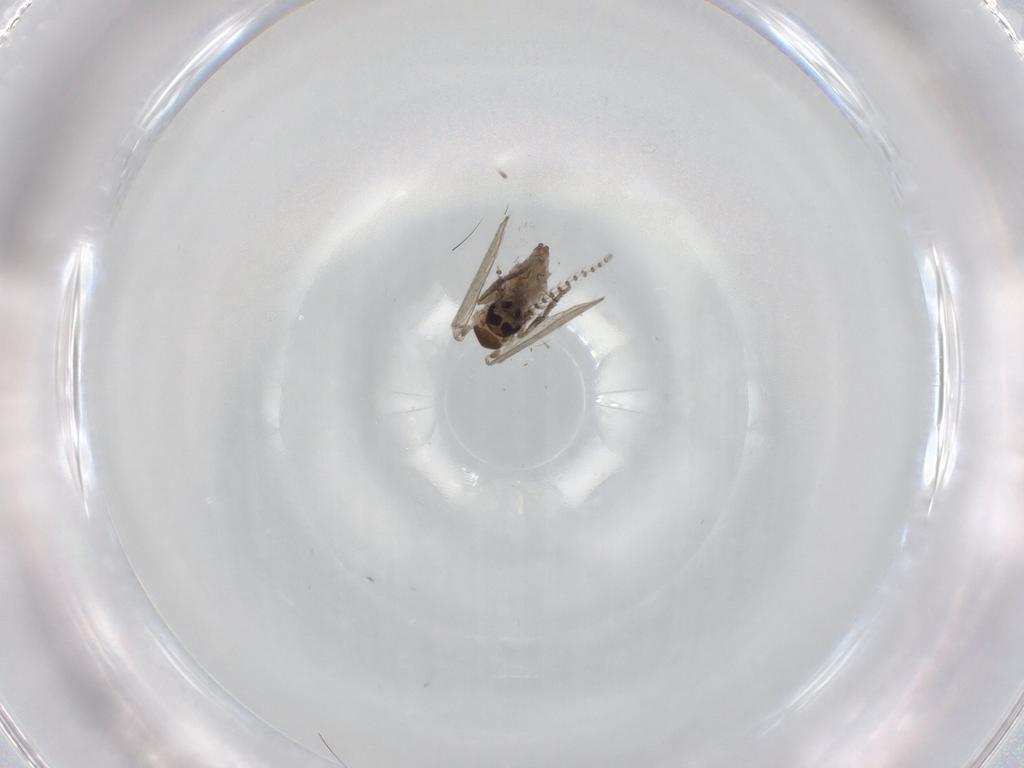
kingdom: Animalia
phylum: Arthropoda
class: Insecta
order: Diptera
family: Psychodidae
